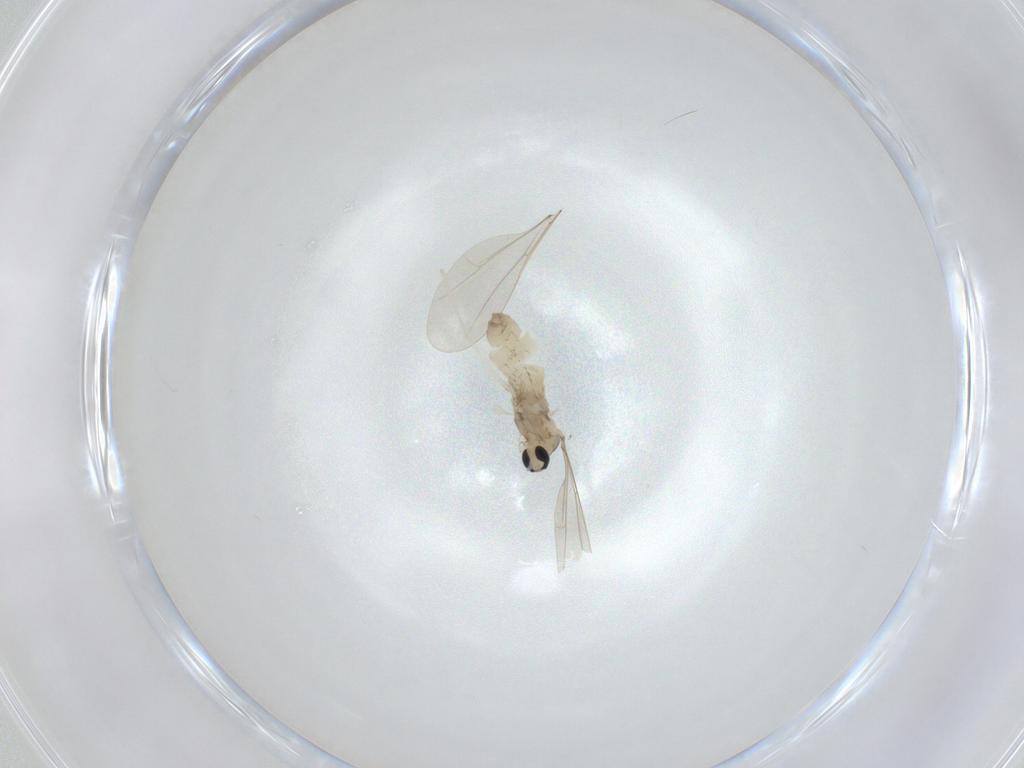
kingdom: Animalia
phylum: Arthropoda
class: Insecta
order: Diptera
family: Cecidomyiidae
